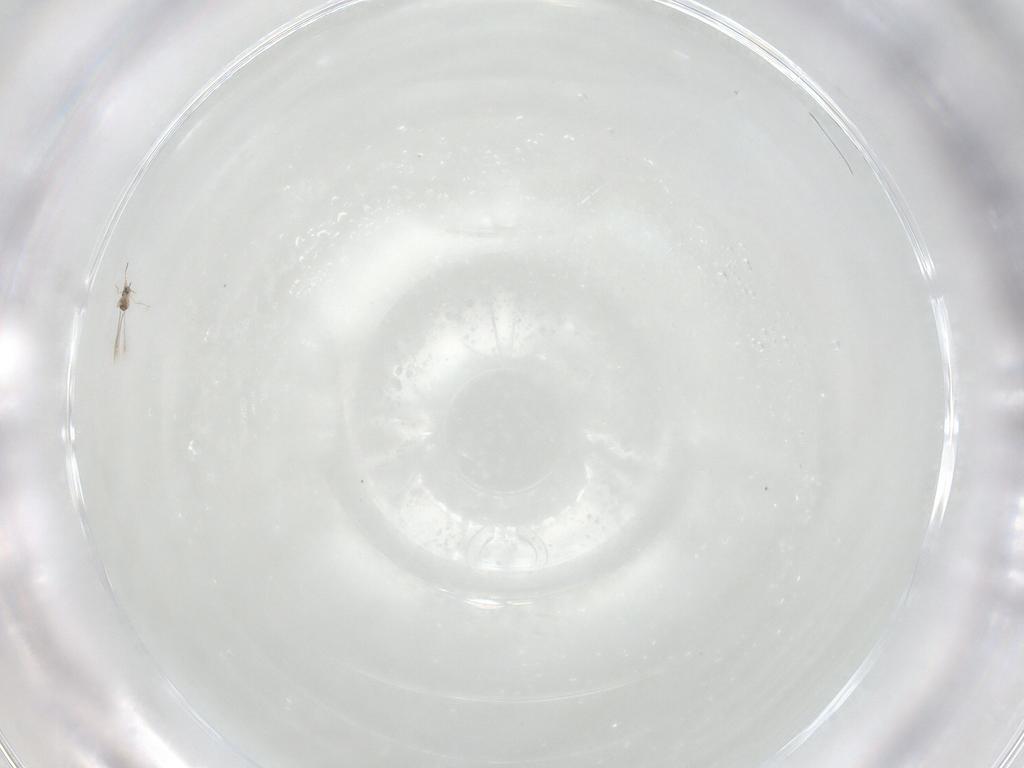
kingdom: Animalia
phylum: Arthropoda
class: Insecta
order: Hymenoptera
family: Mymaridae
